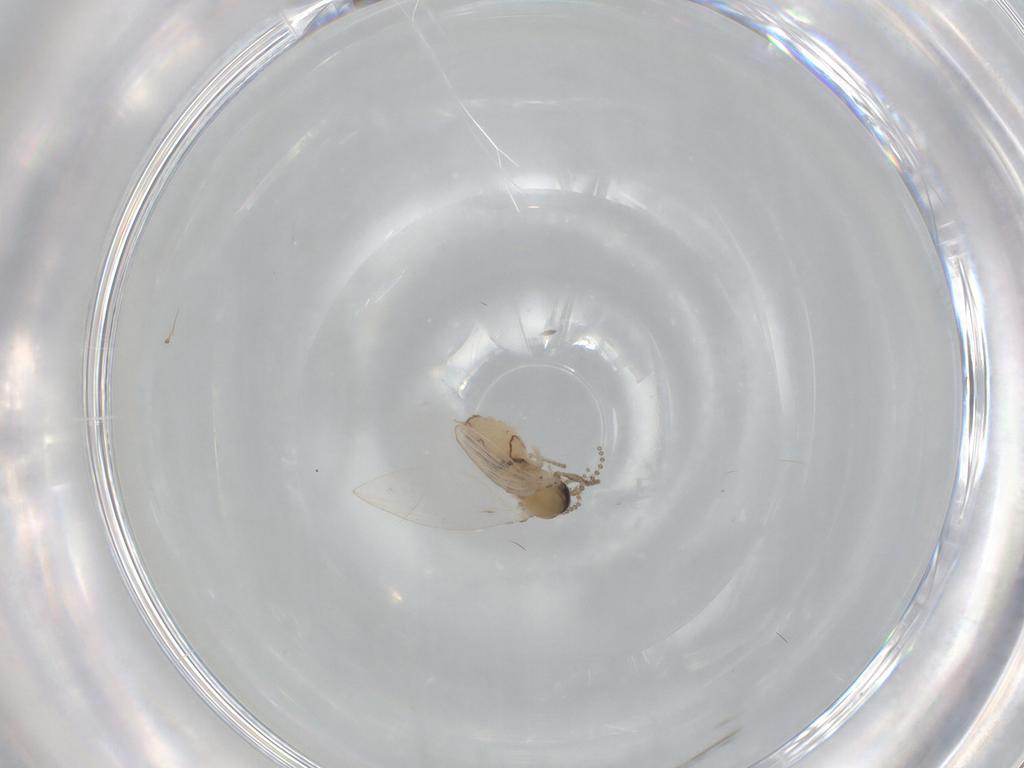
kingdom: Animalia
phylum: Arthropoda
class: Insecta
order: Diptera
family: Psychodidae
